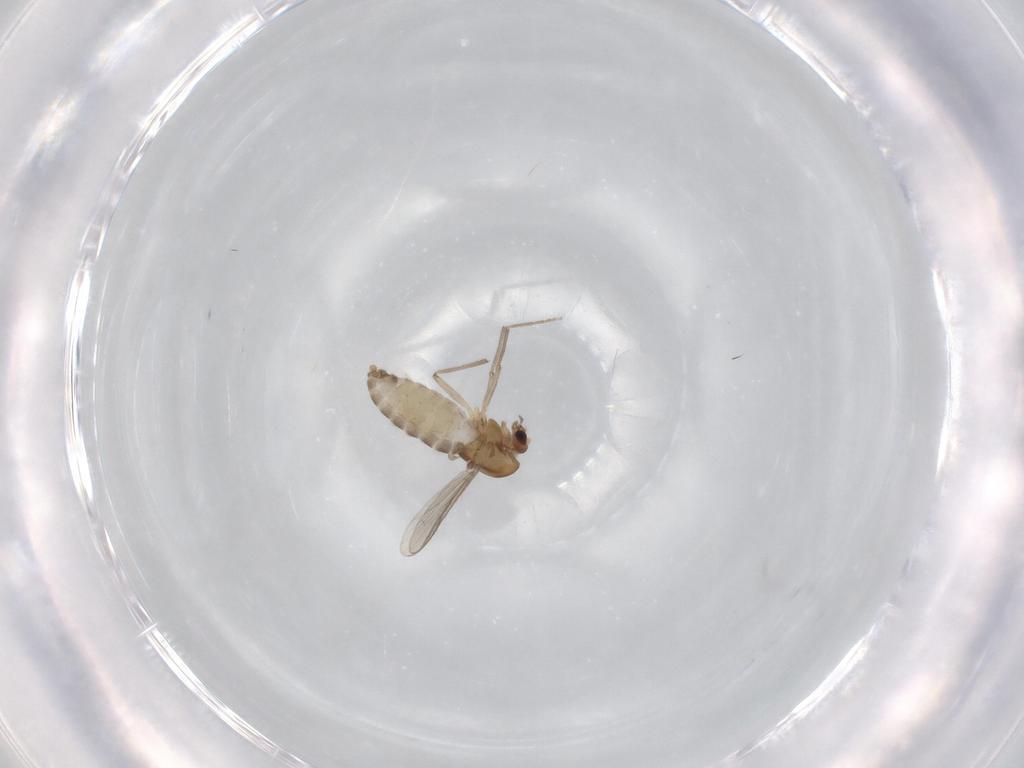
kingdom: Animalia
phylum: Arthropoda
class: Insecta
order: Diptera
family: Chironomidae
